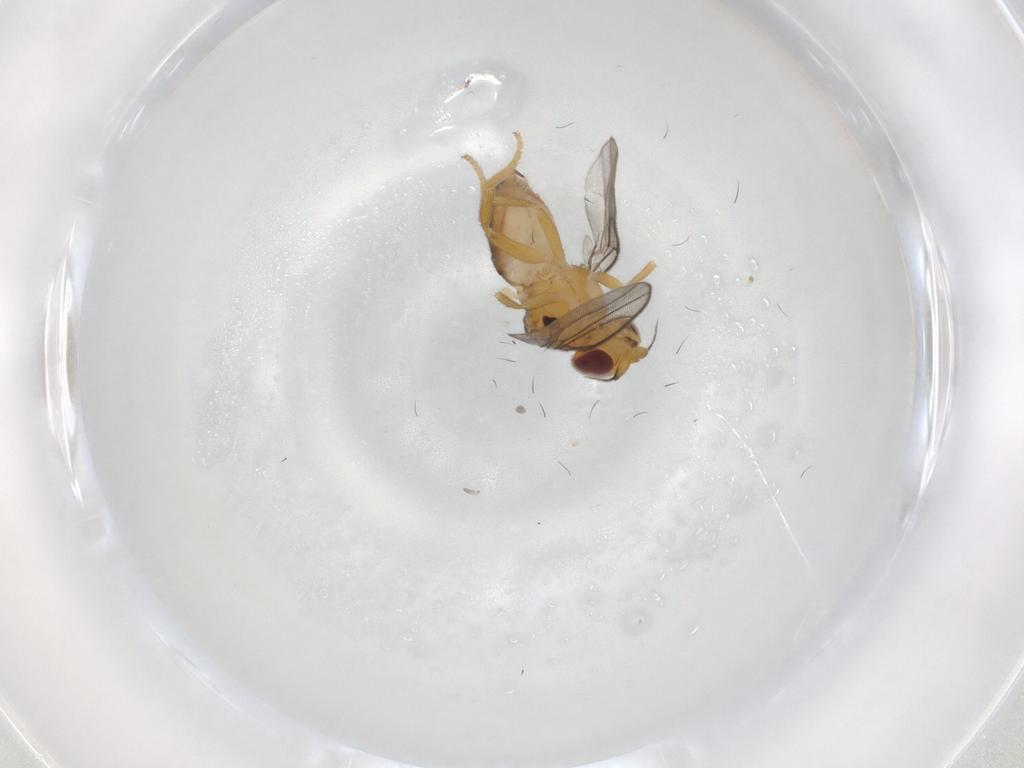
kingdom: Animalia
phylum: Arthropoda
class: Insecta
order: Diptera
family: Chloropidae
